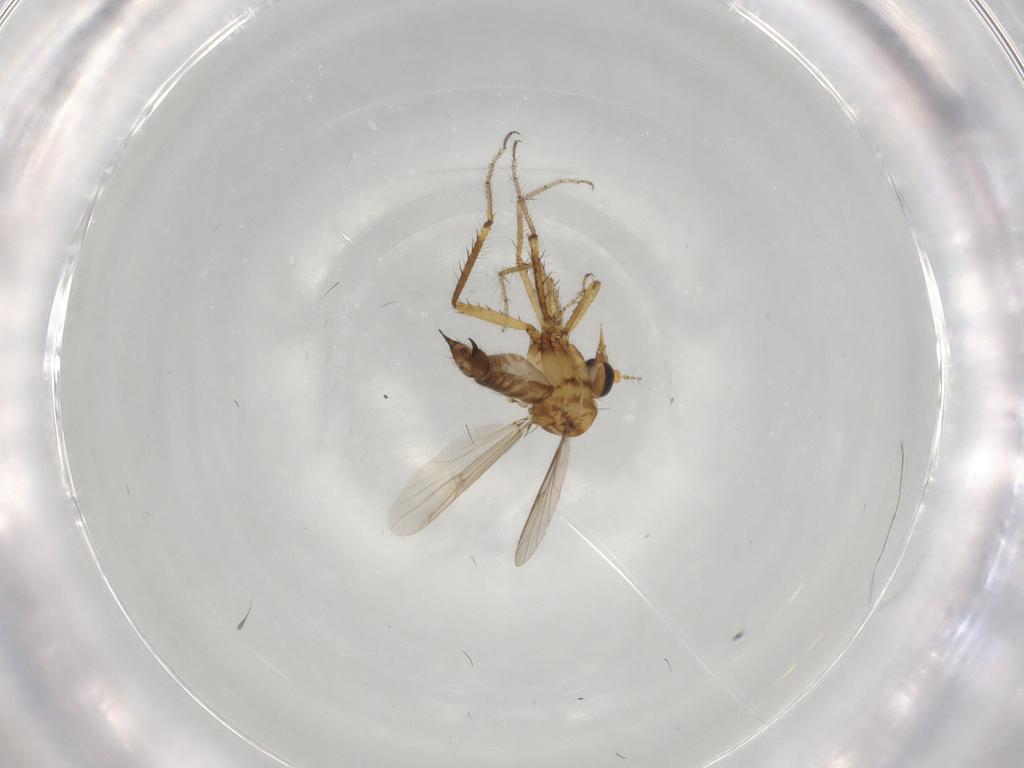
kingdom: Animalia
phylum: Arthropoda
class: Insecta
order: Diptera
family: Ceratopogonidae
